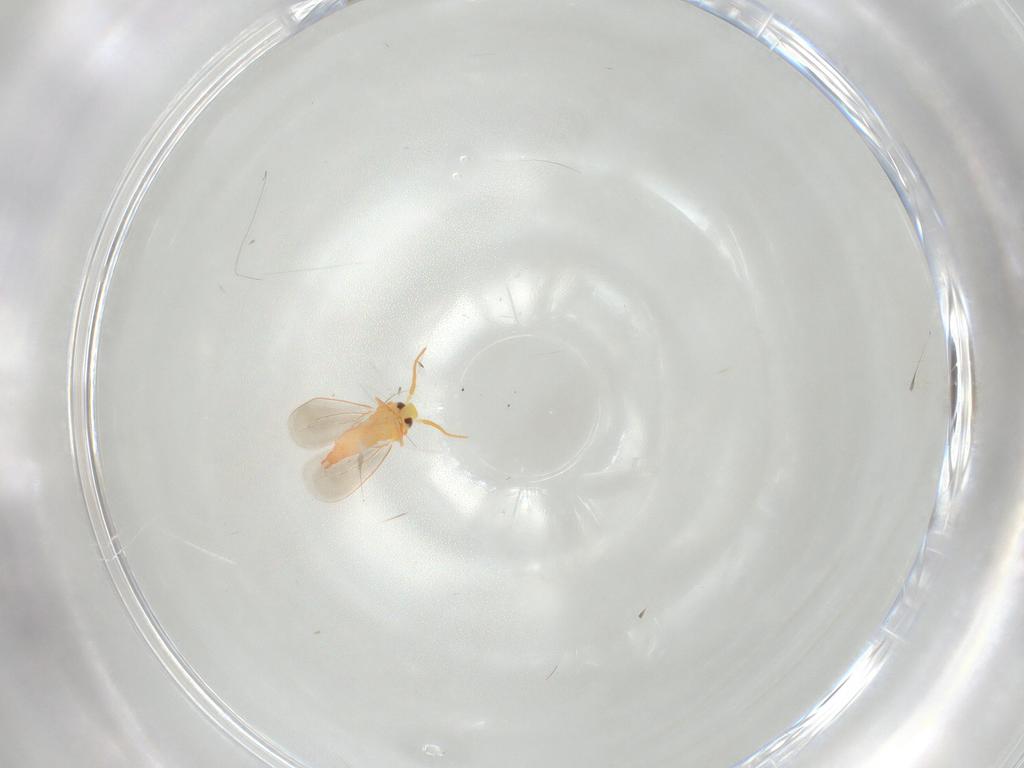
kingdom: Animalia
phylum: Arthropoda
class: Insecta
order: Hemiptera
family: Aleyrodidae
